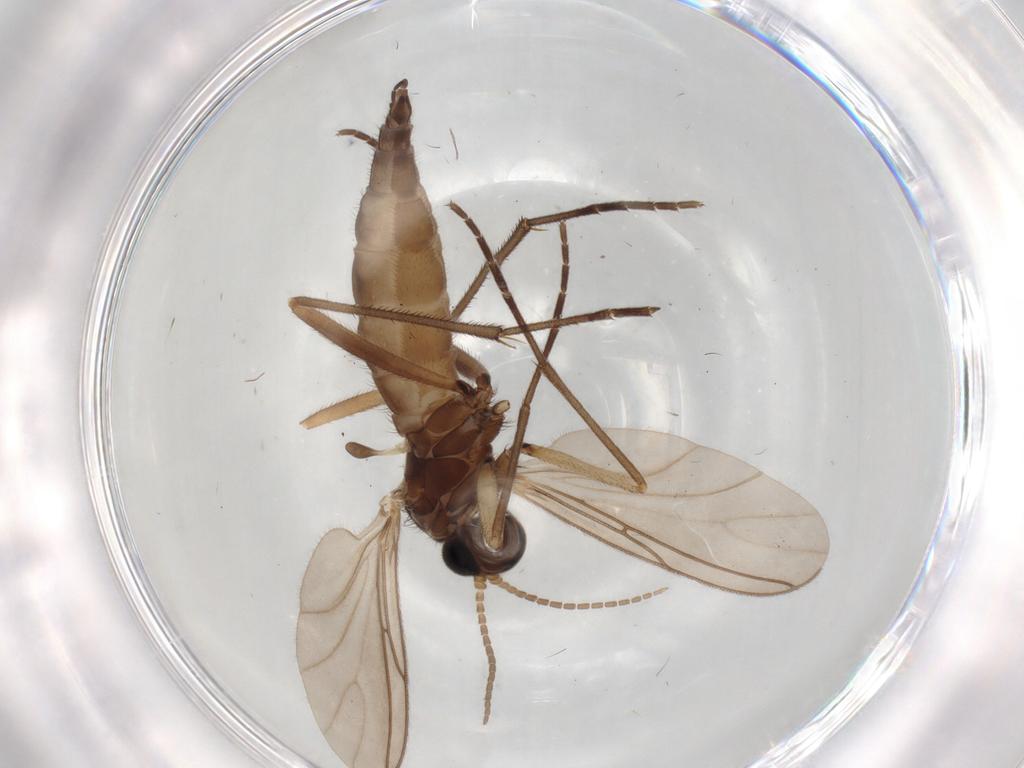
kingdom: Animalia
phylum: Arthropoda
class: Insecta
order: Diptera
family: Sciaridae
